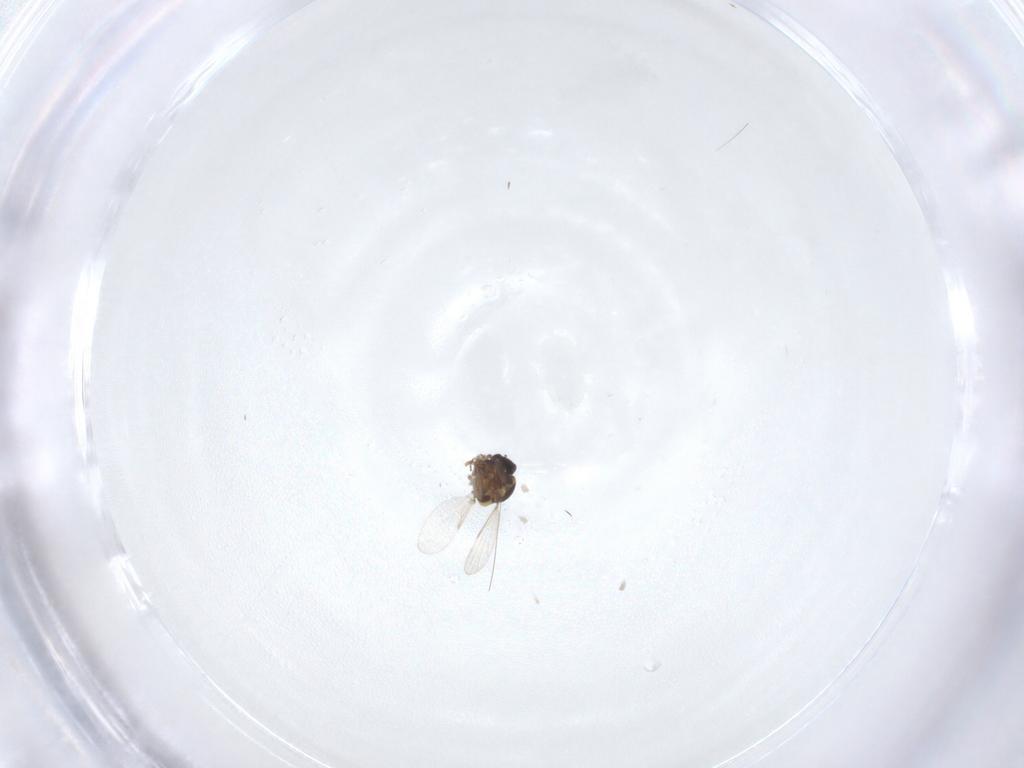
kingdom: Animalia
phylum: Arthropoda
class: Insecta
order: Diptera
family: Ceratopogonidae
